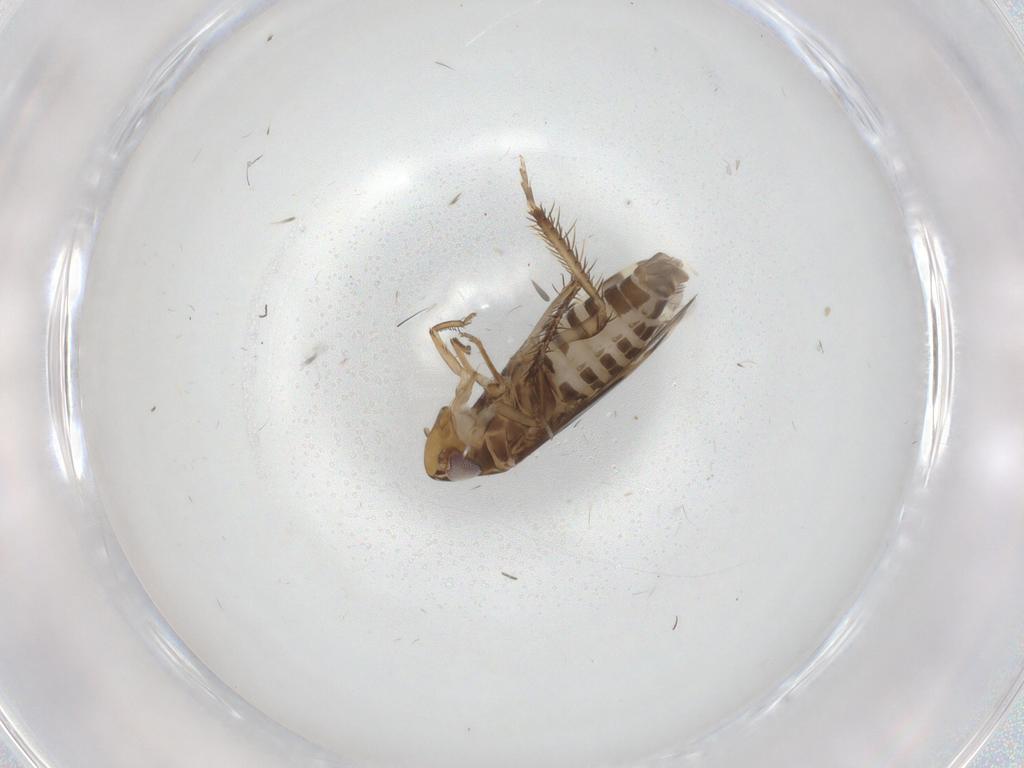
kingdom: Animalia
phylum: Arthropoda
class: Insecta
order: Hemiptera
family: Cicadellidae
